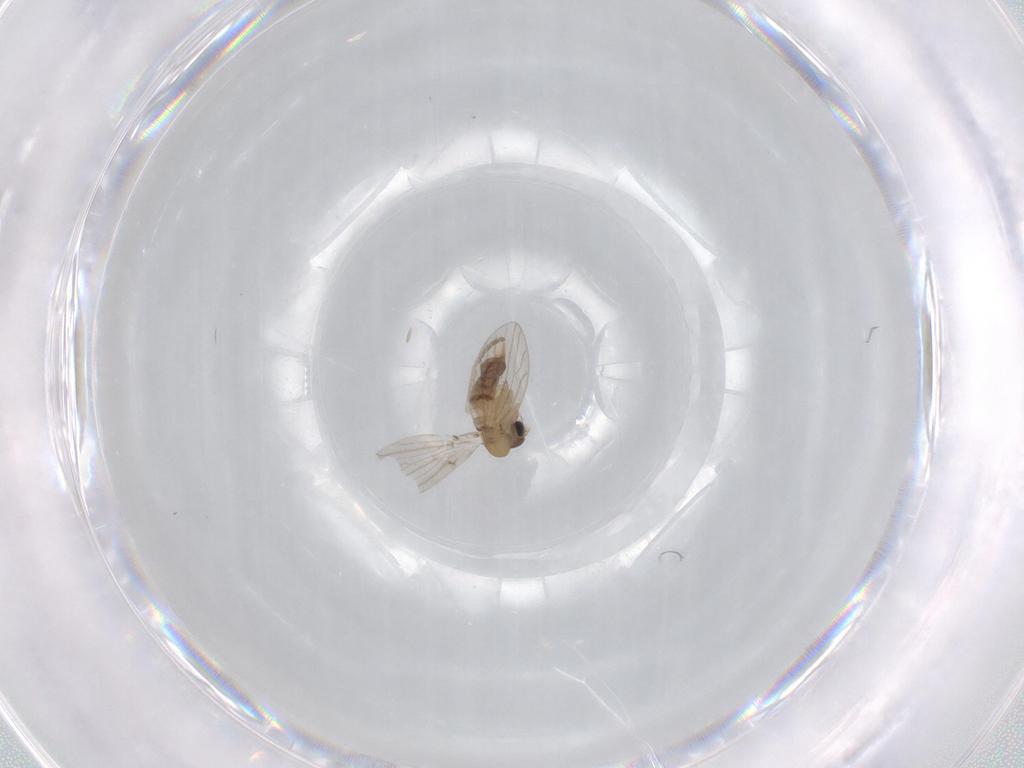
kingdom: Animalia
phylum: Arthropoda
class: Insecta
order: Diptera
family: Psychodidae
